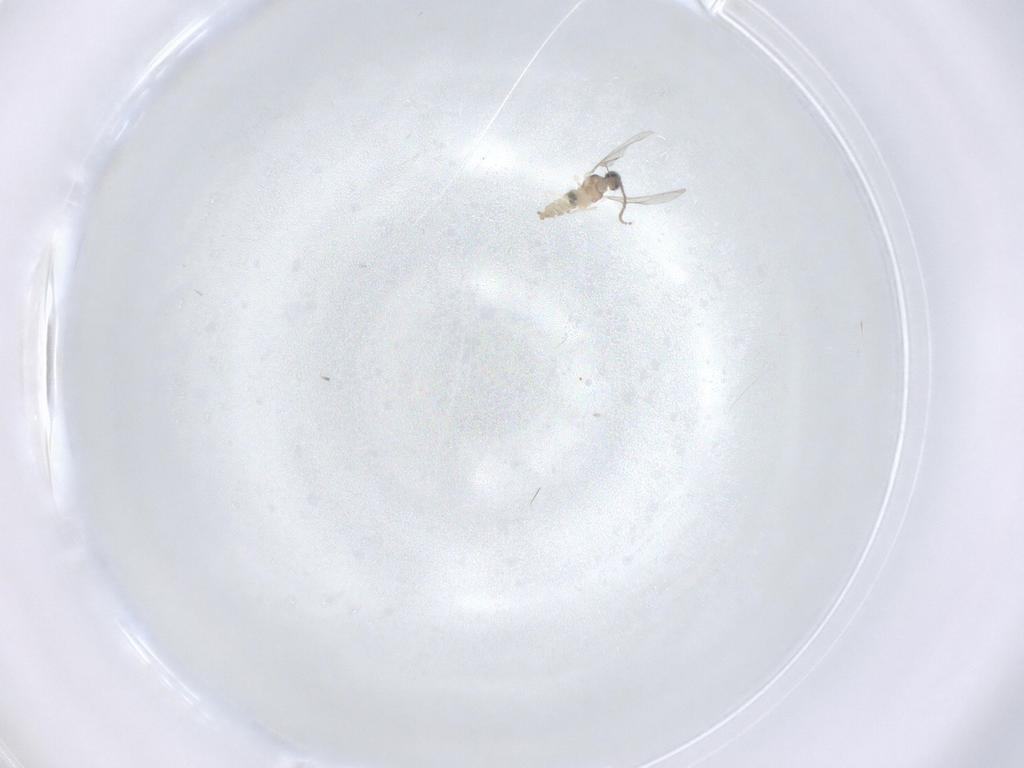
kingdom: Animalia
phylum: Arthropoda
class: Insecta
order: Diptera
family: Cecidomyiidae
